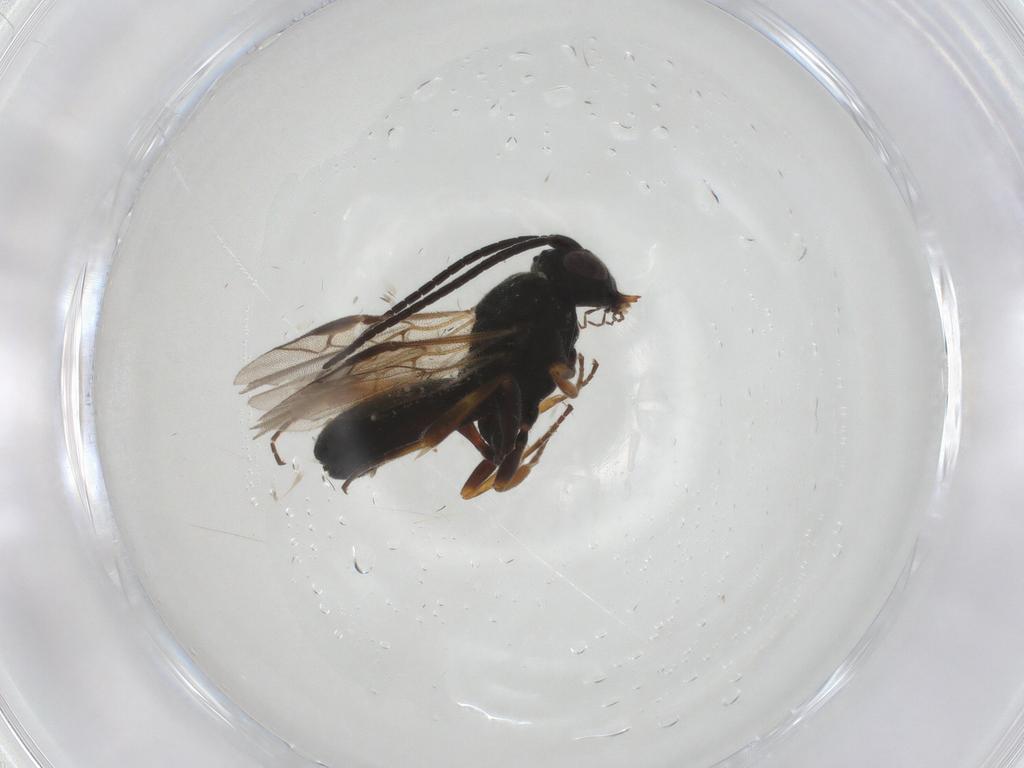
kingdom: Animalia
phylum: Arthropoda
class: Insecta
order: Hymenoptera
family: Braconidae
